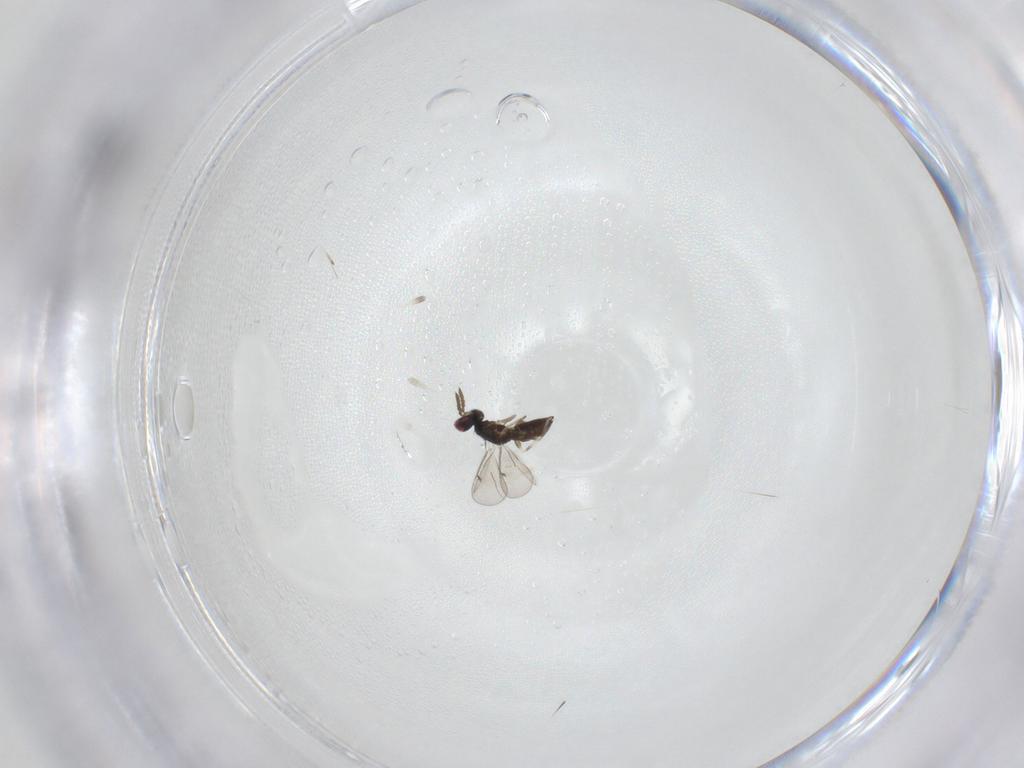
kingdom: Animalia
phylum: Arthropoda
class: Insecta
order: Hymenoptera
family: Eulophidae
